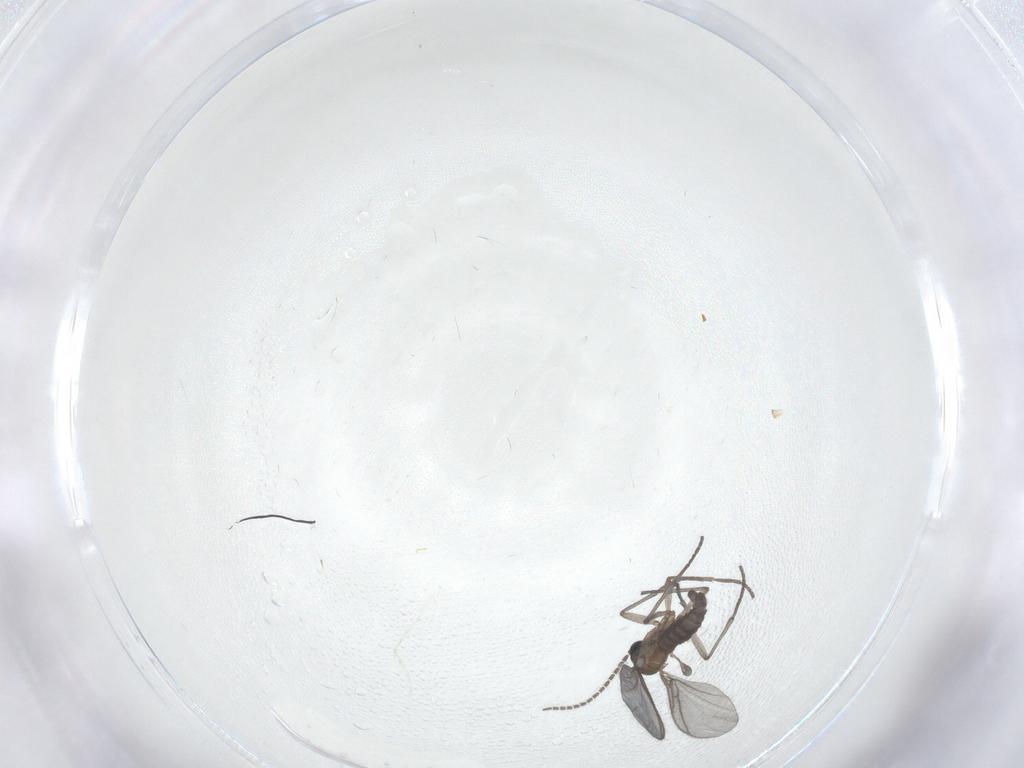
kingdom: Animalia
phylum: Arthropoda
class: Insecta
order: Diptera
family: Sciaridae
